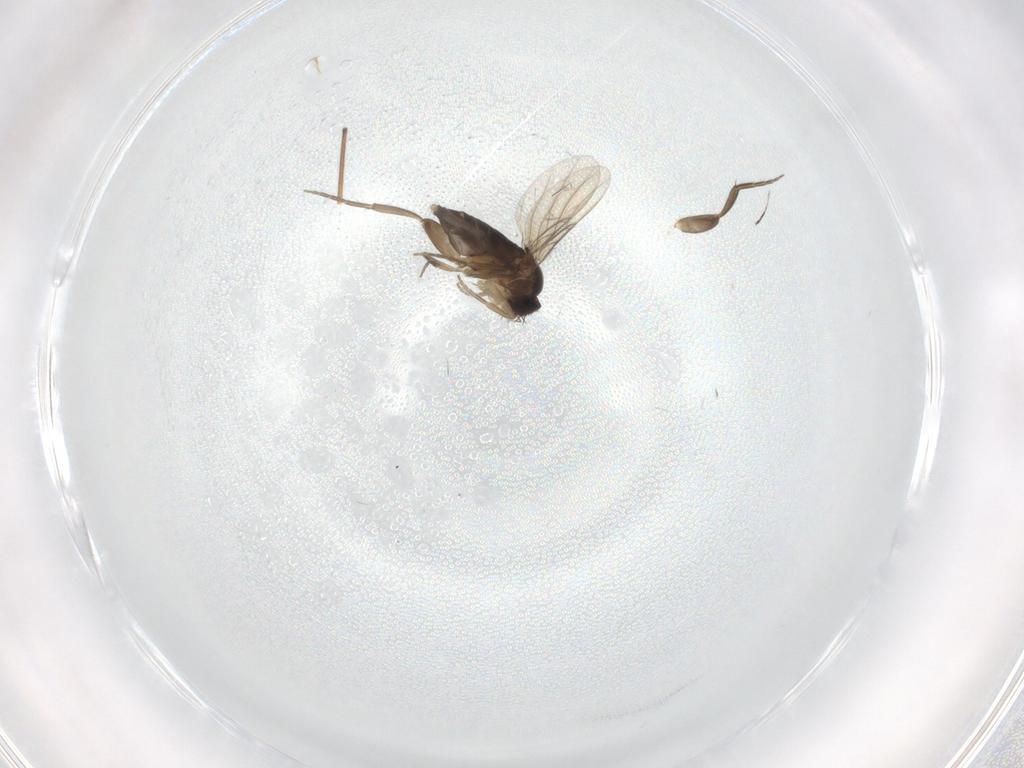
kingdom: Animalia
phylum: Arthropoda
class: Insecta
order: Diptera
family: Phoridae
